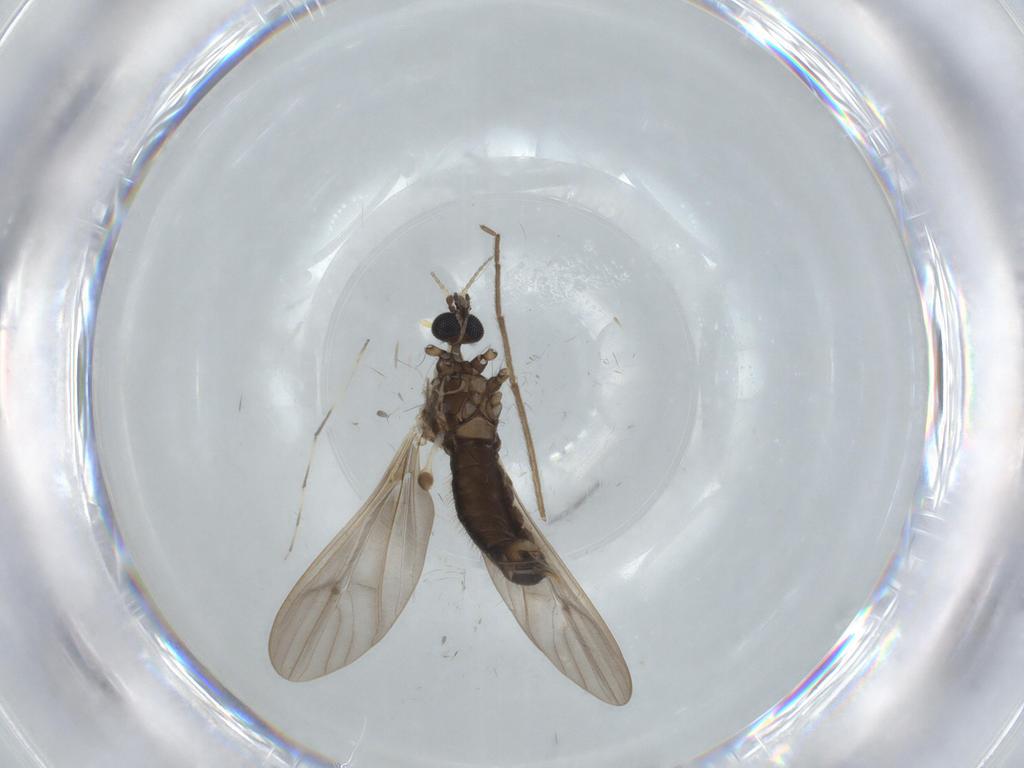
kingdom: Animalia
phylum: Arthropoda
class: Insecta
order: Diptera
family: Limoniidae
